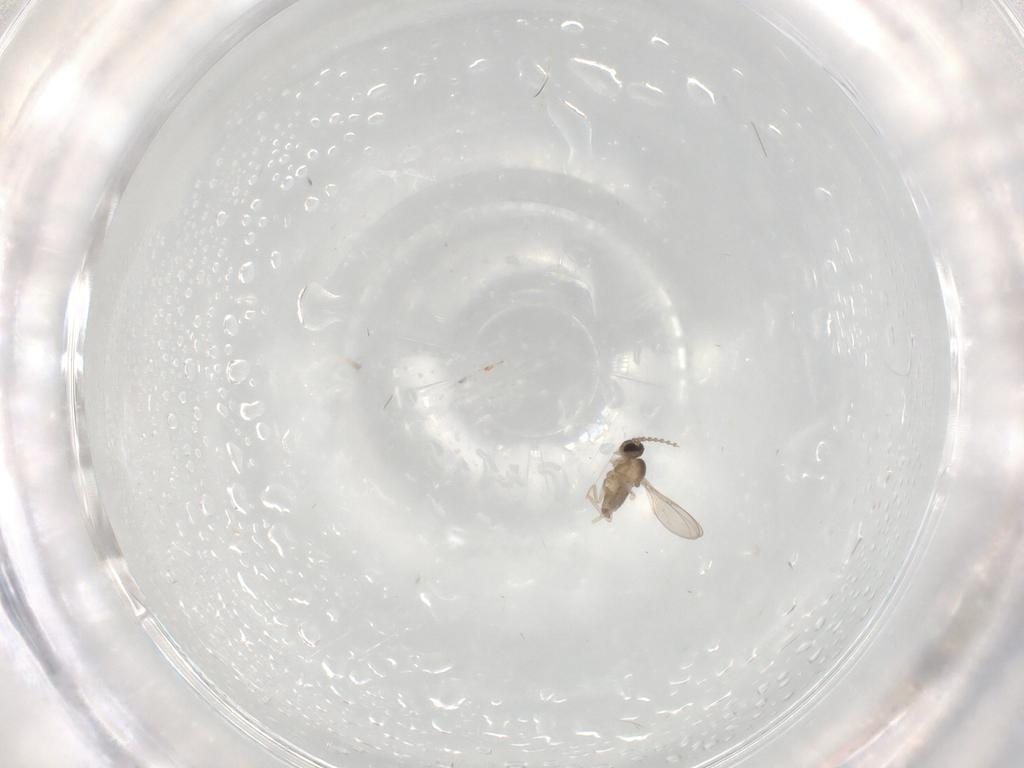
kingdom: Animalia
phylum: Arthropoda
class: Insecta
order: Diptera
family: Cecidomyiidae
